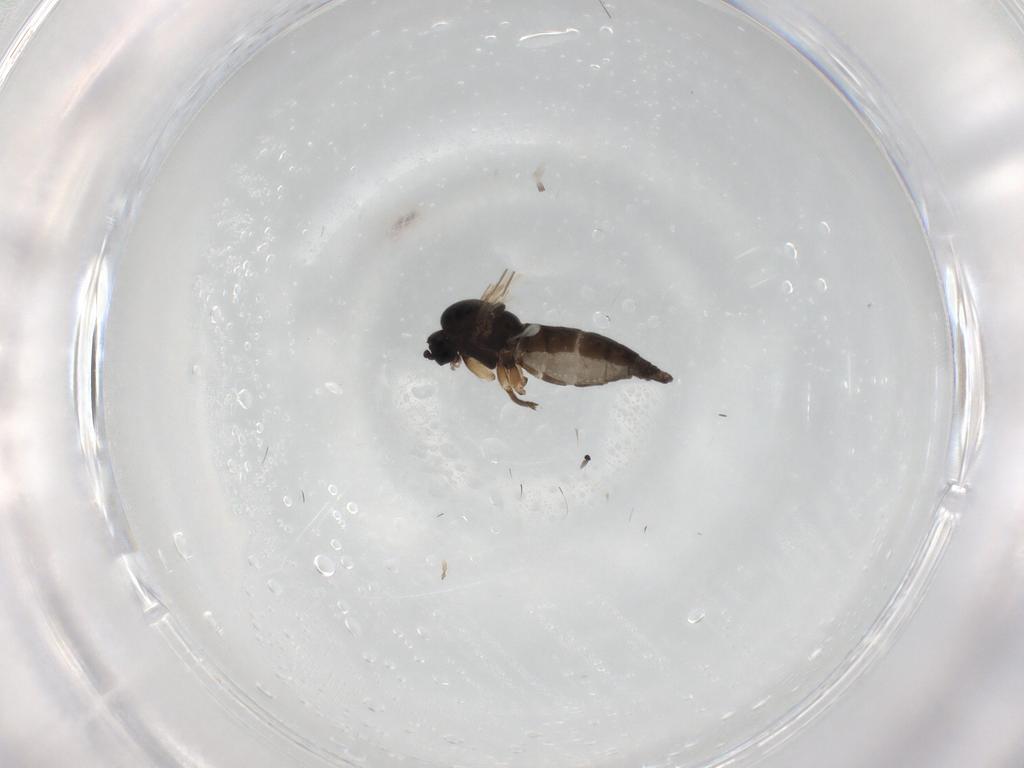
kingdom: Animalia
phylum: Arthropoda
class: Insecta
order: Diptera
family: Sciaridae
